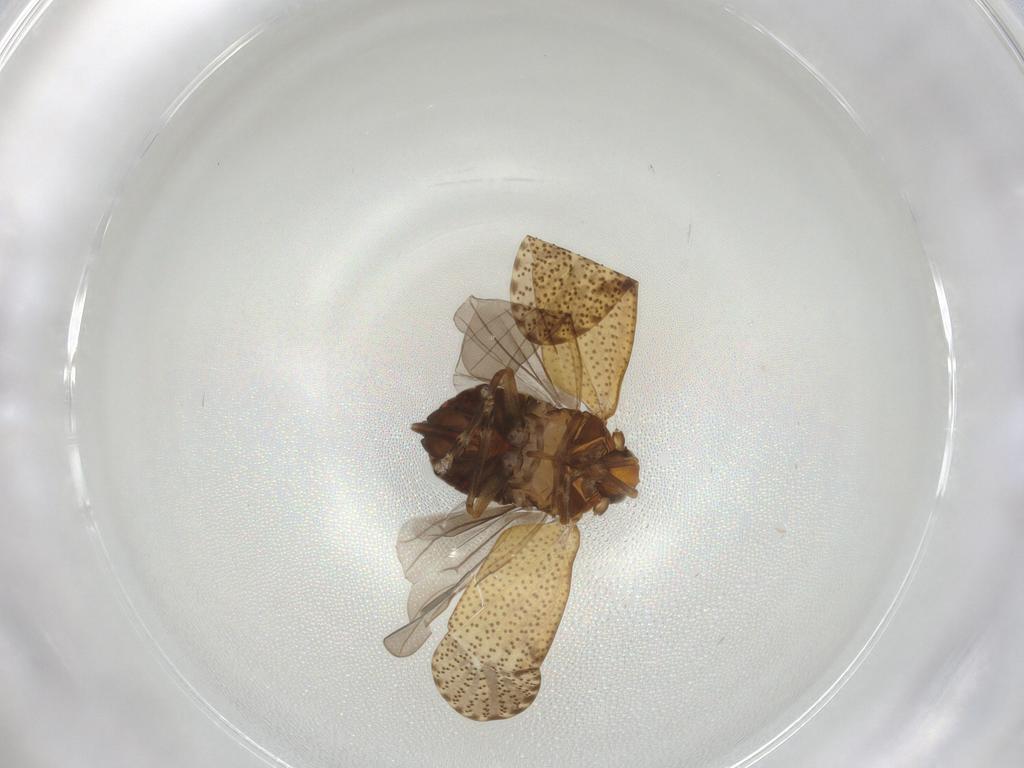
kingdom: Animalia
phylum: Arthropoda
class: Insecta
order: Hemiptera
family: Delphacidae
